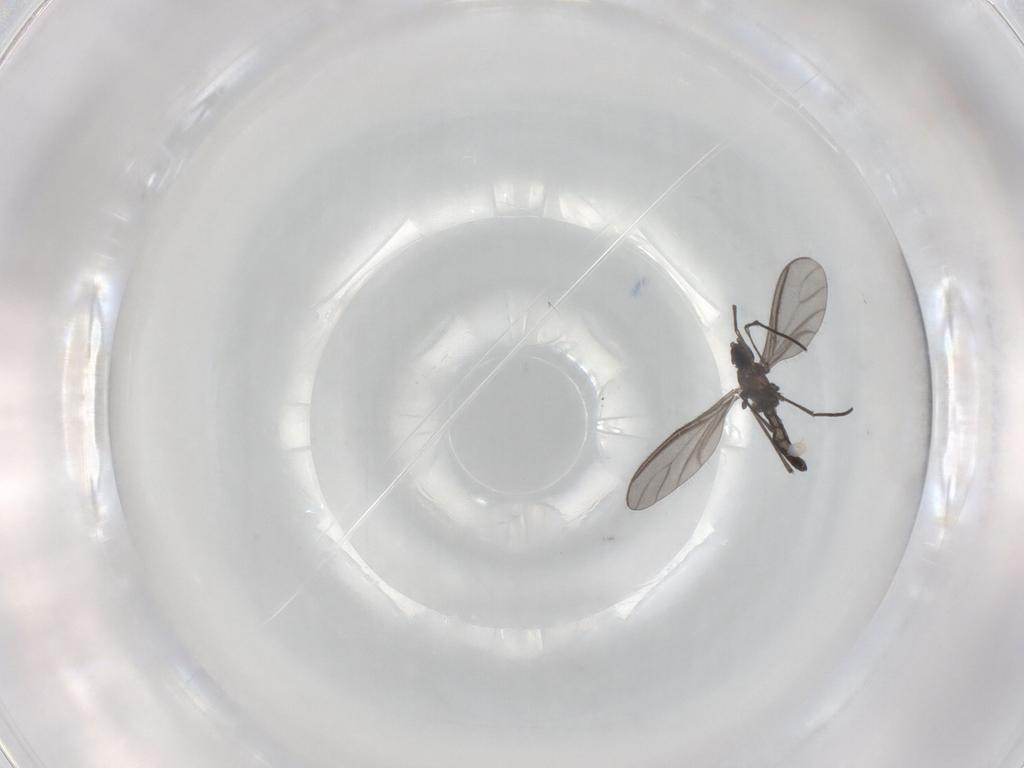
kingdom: Animalia
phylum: Arthropoda
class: Insecta
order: Diptera
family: Sciaridae
